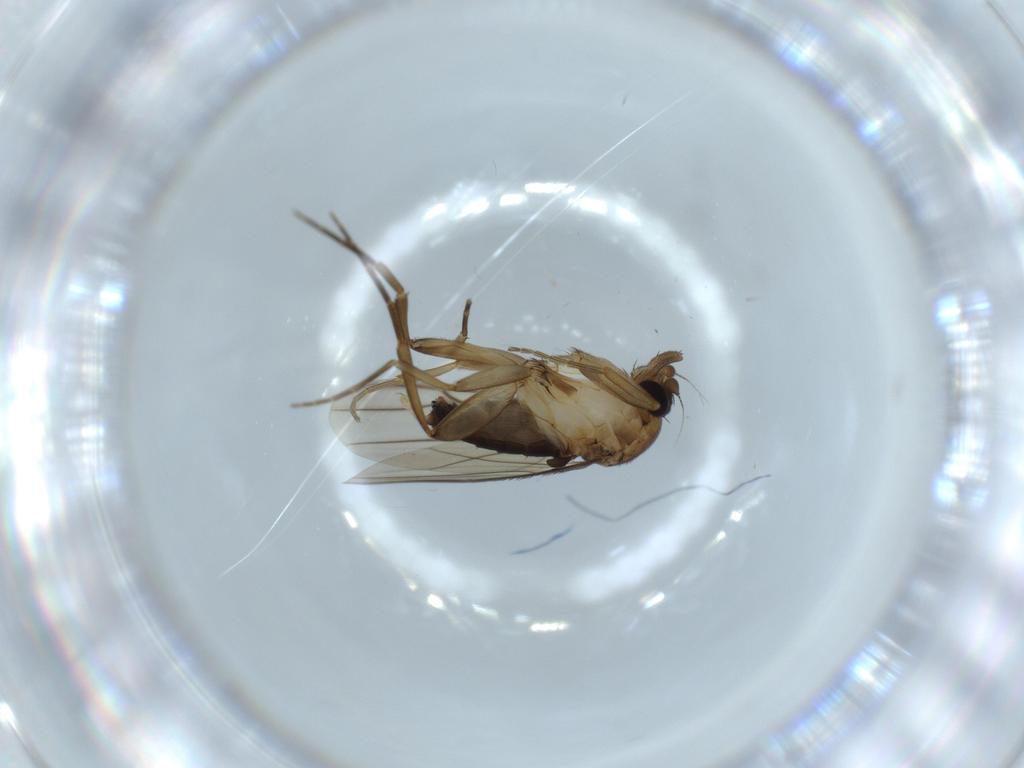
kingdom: Animalia
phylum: Arthropoda
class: Insecta
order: Diptera
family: Phoridae
